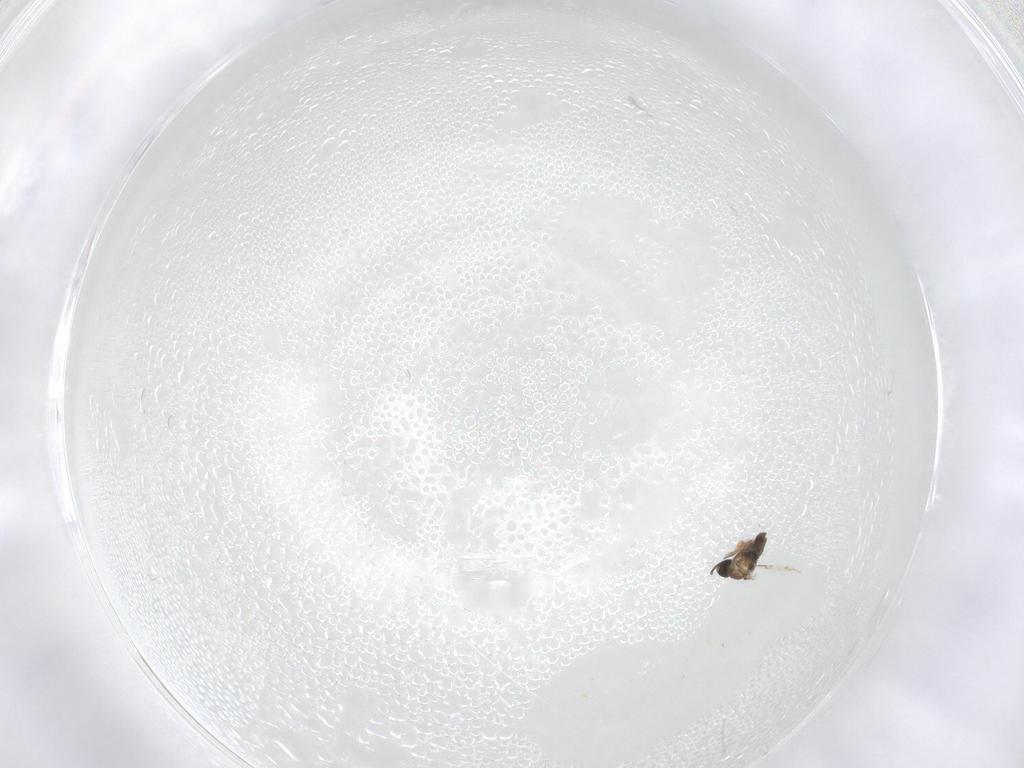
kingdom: Animalia
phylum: Arthropoda
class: Insecta
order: Diptera
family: Cecidomyiidae
